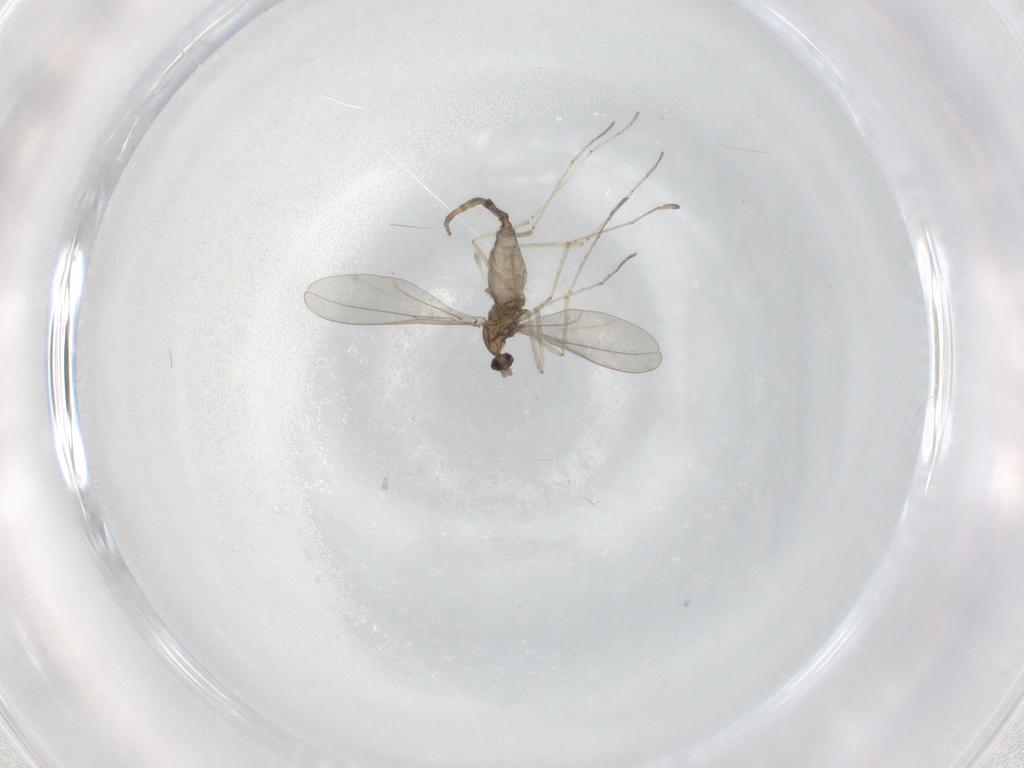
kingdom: Animalia
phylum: Arthropoda
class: Insecta
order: Diptera
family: Cecidomyiidae
